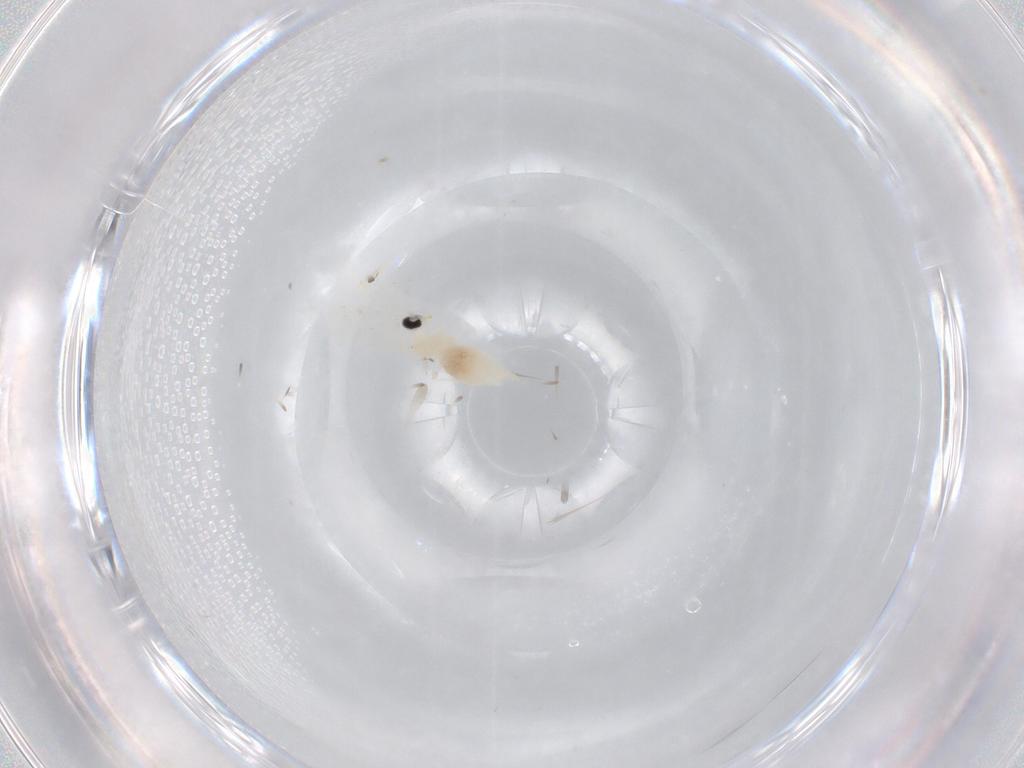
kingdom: Animalia
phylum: Arthropoda
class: Insecta
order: Diptera
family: Cecidomyiidae
